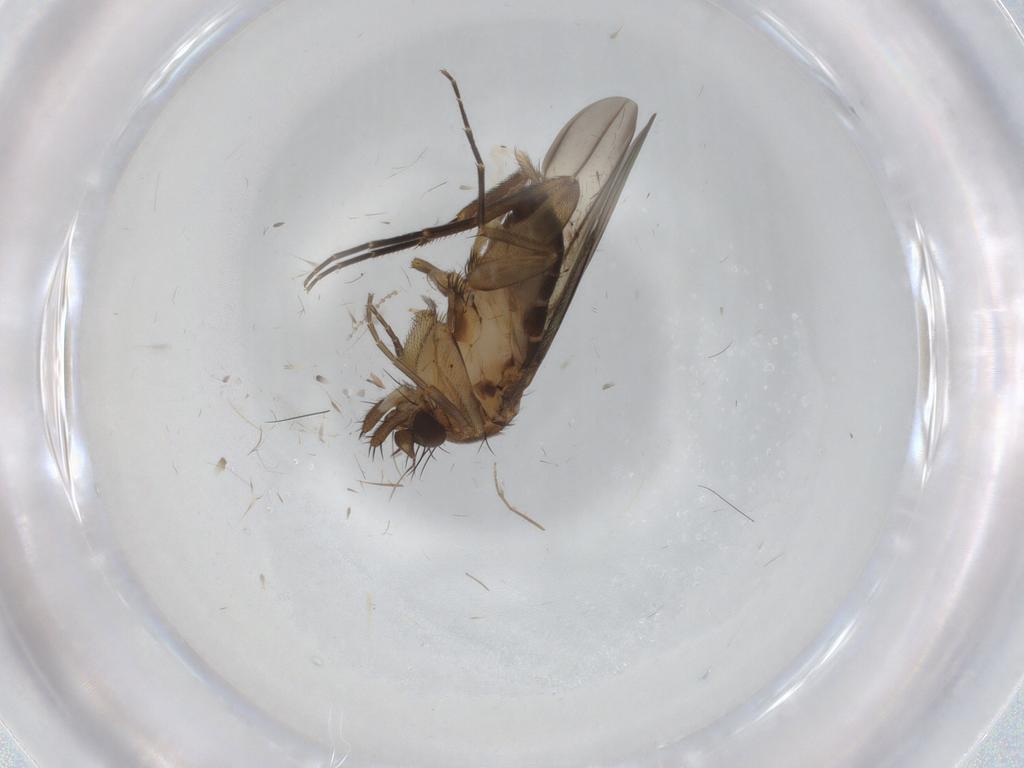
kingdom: Animalia
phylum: Arthropoda
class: Insecta
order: Diptera
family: Phoridae
